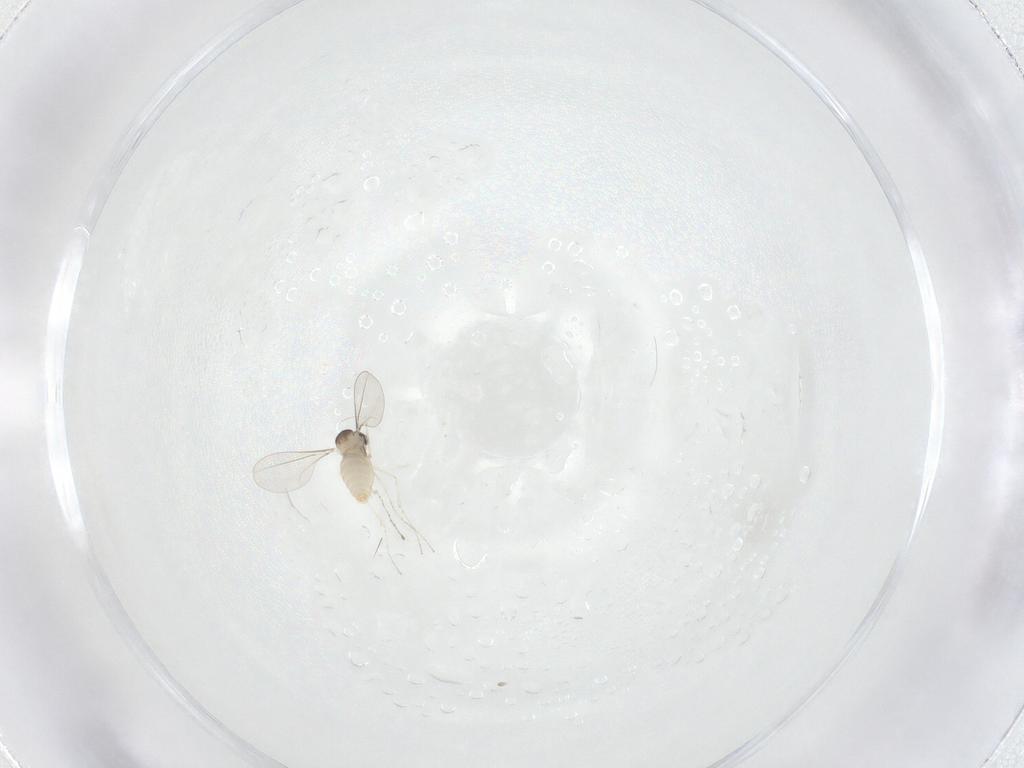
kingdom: Animalia
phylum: Arthropoda
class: Insecta
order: Diptera
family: Cecidomyiidae
